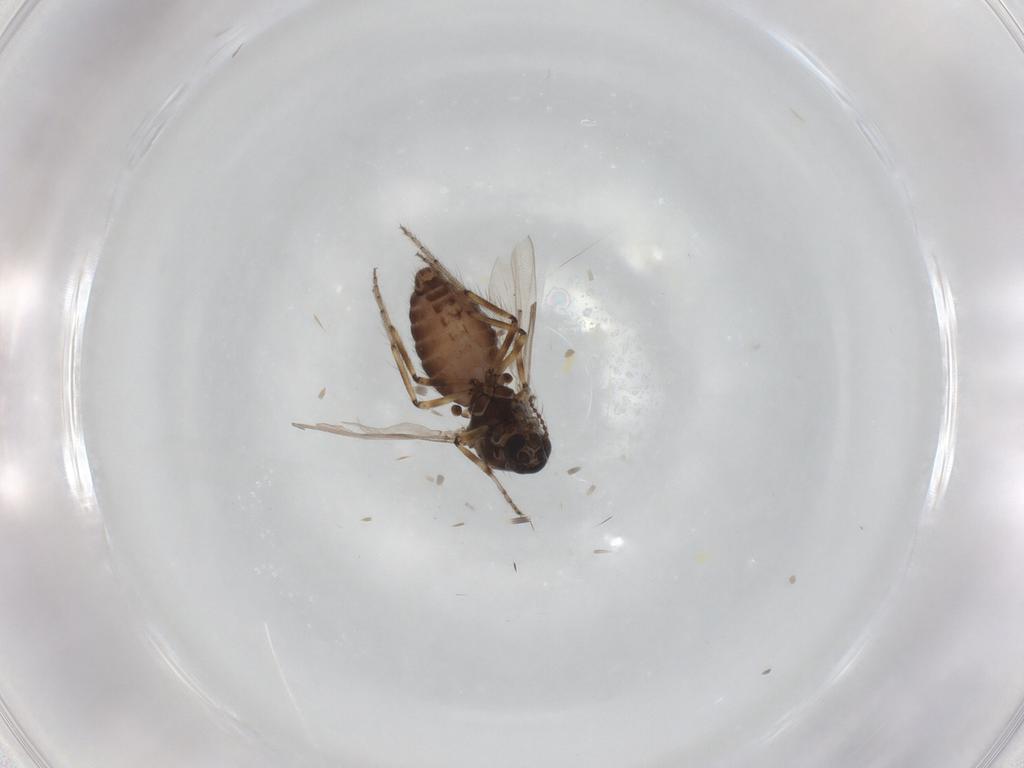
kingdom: Animalia
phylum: Arthropoda
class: Insecta
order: Diptera
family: Ceratopogonidae
